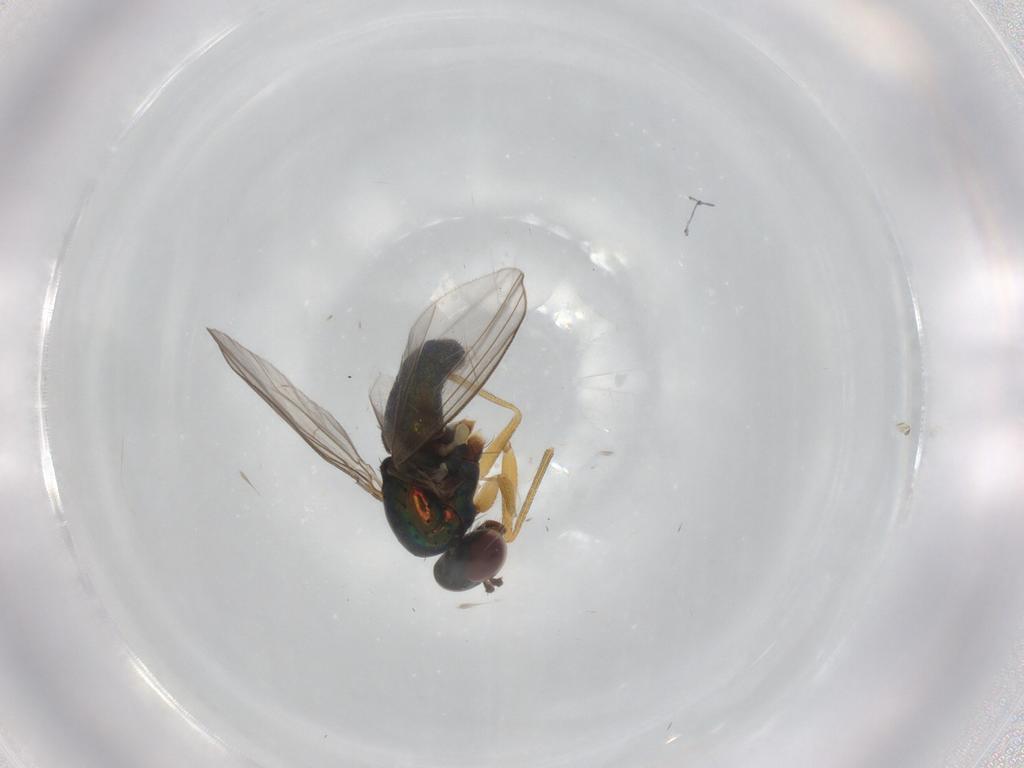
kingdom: Animalia
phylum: Arthropoda
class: Insecta
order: Diptera
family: Dolichopodidae
